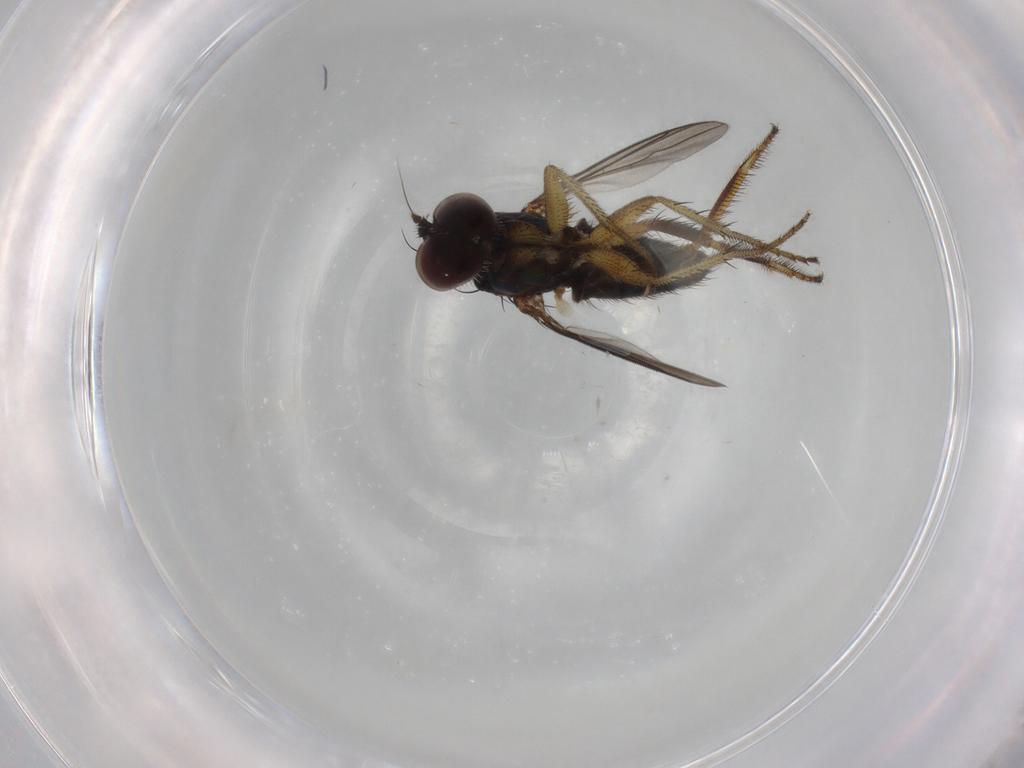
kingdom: Animalia
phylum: Arthropoda
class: Insecta
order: Diptera
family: Dolichopodidae
